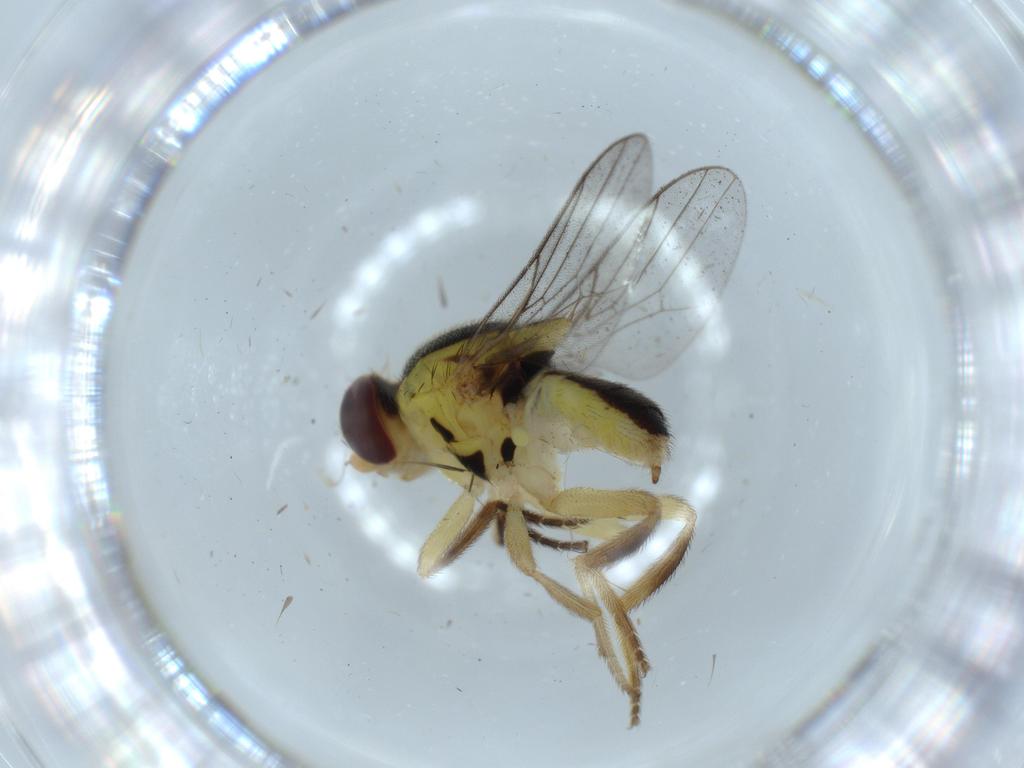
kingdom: Animalia
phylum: Arthropoda
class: Insecta
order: Diptera
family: Chloropidae
